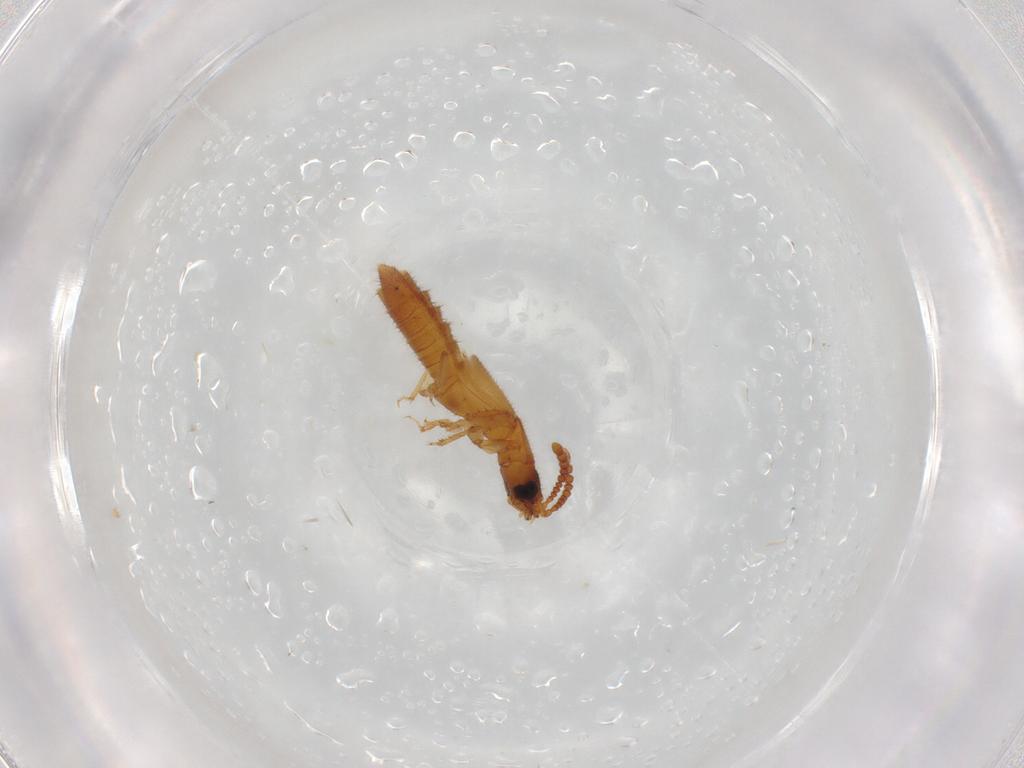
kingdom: Animalia
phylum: Arthropoda
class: Insecta
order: Coleoptera
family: Staphylinidae
